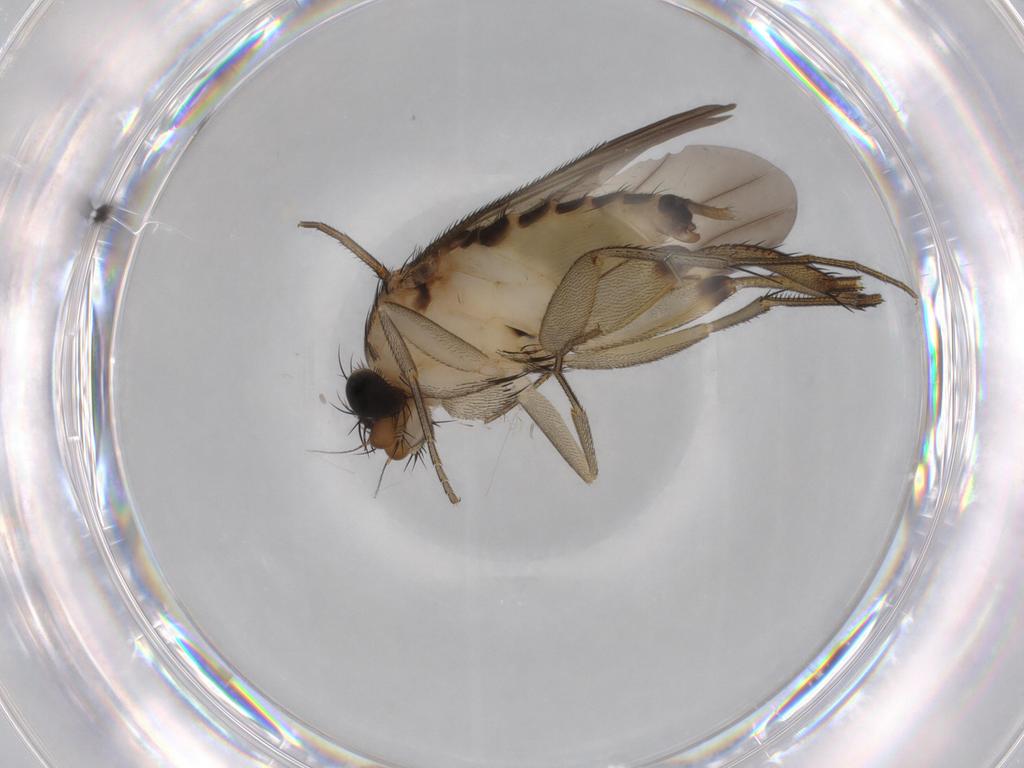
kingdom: Animalia
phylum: Arthropoda
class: Insecta
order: Diptera
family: Phoridae
